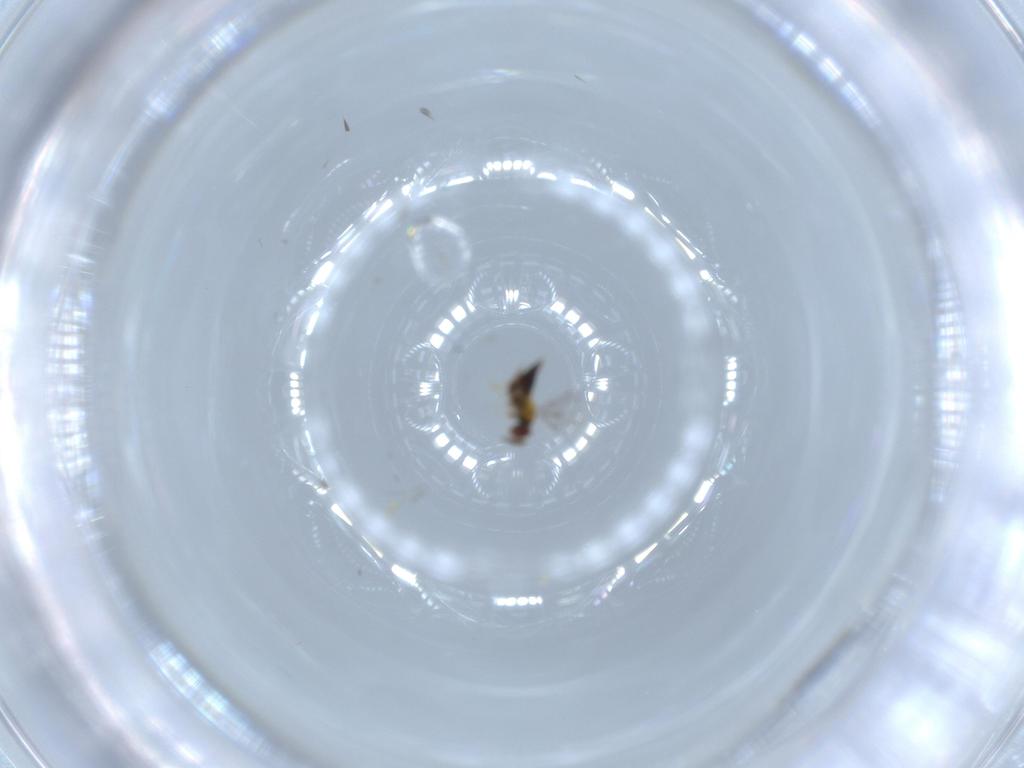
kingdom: Animalia
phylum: Arthropoda
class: Insecta
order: Hymenoptera
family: Trichogrammatidae
